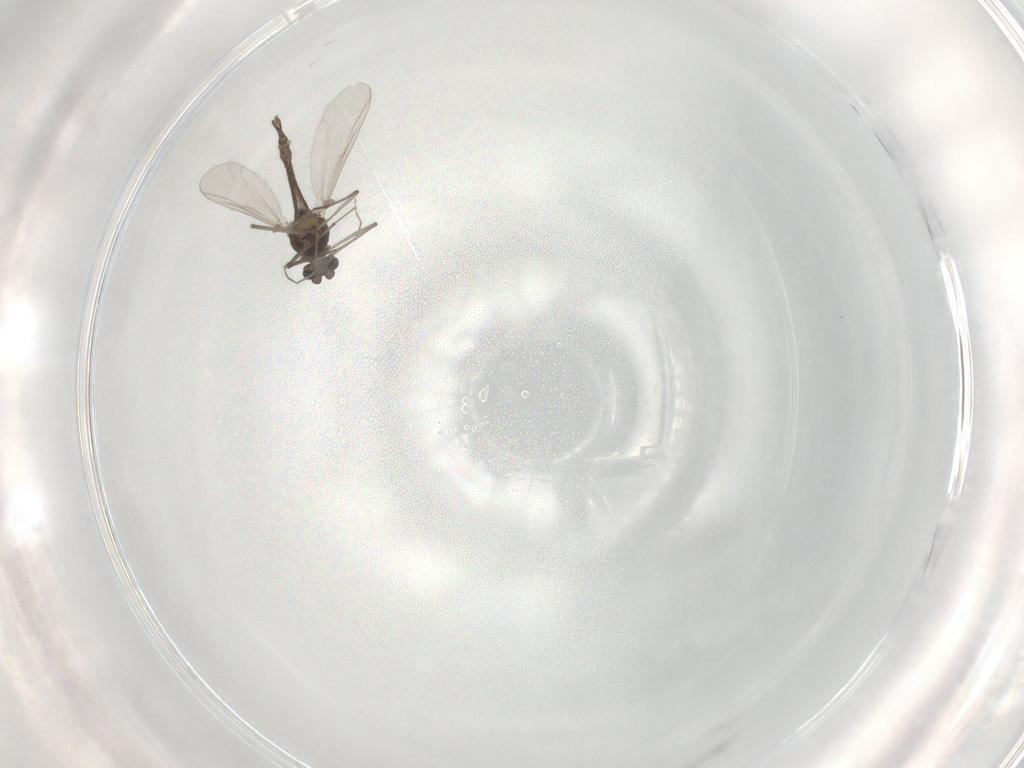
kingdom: Animalia
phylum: Arthropoda
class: Insecta
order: Diptera
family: Chironomidae
